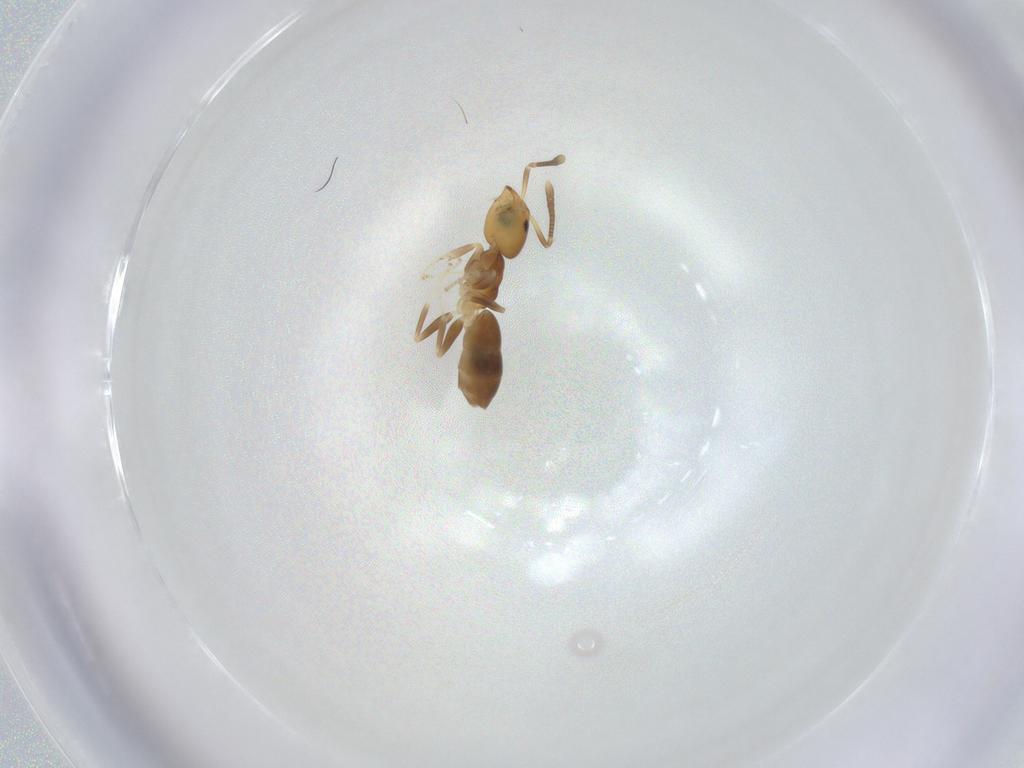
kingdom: Animalia
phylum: Arthropoda
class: Insecta
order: Hymenoptera
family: Formicidae
